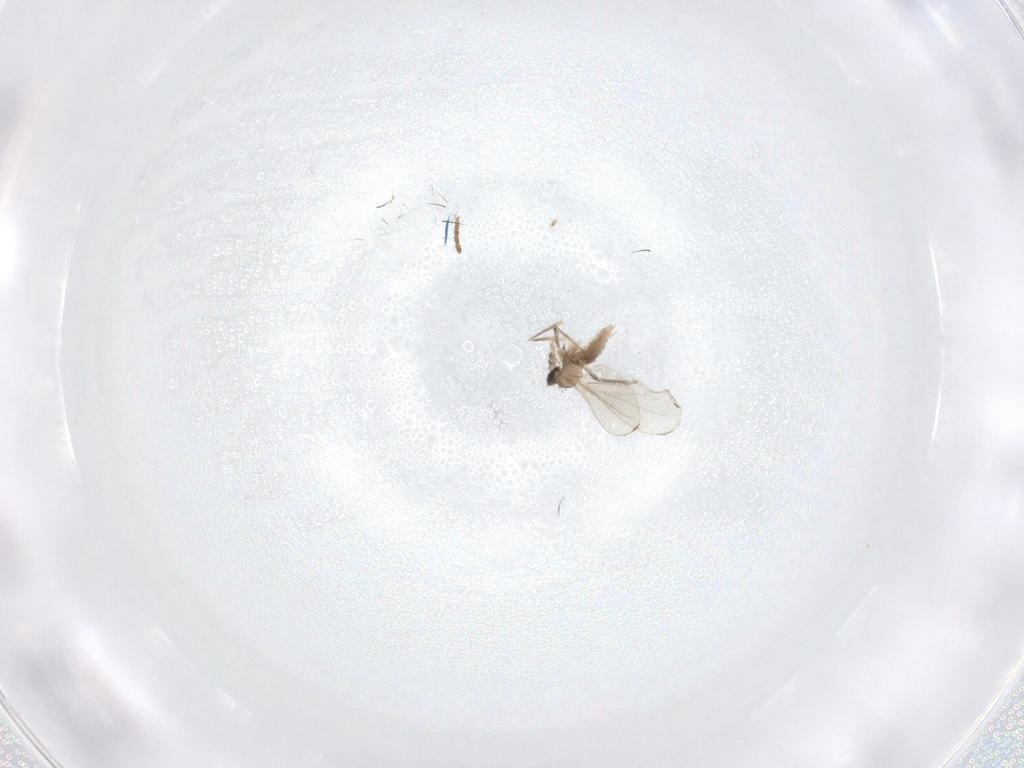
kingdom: Animalia
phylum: Arthropoda
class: Insecta
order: Diptera
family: Sciaridae
